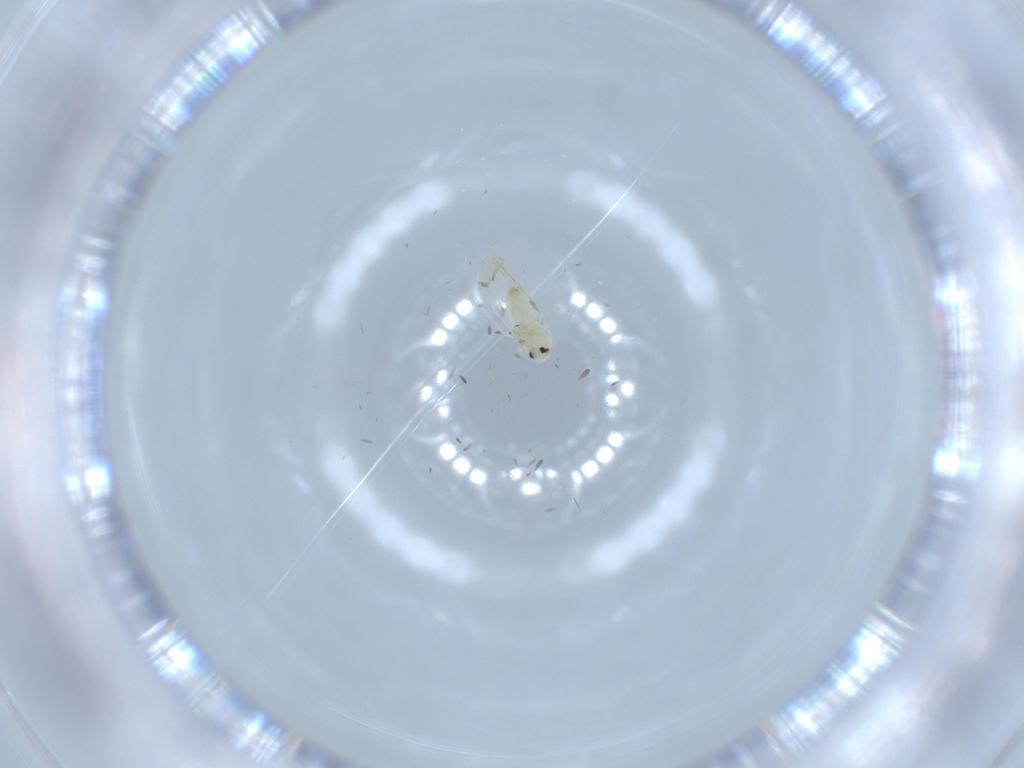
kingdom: Animalia
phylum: Arthropoda
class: Insecta
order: Hemiptera
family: Aleyrodidae
